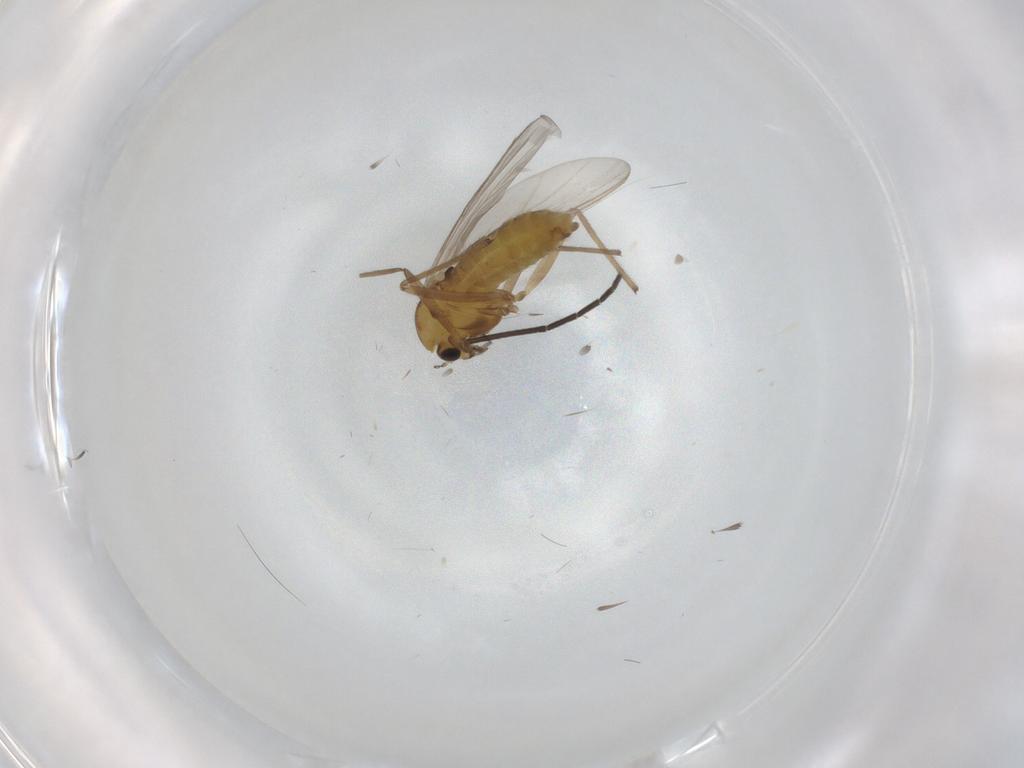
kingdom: Animalia
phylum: Arthropoda
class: Insecta
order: Diptera
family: Chironomidae
